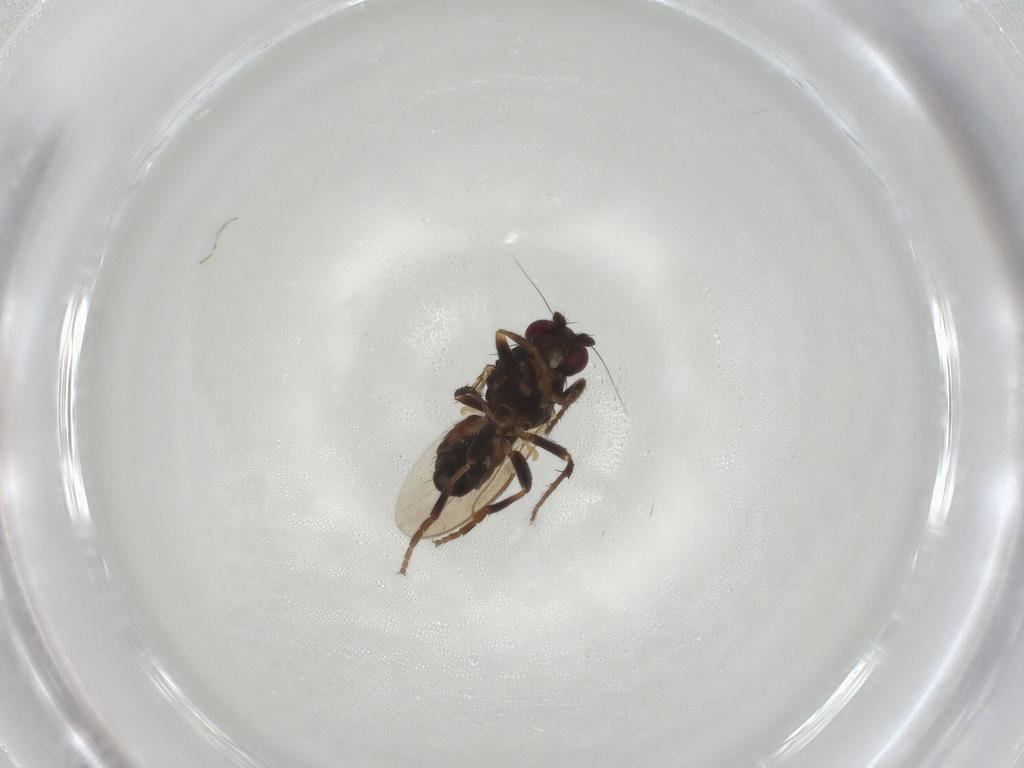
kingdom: Animalia
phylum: Arthropoda
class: Insecta
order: Diptera
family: Sphaeroceridae
